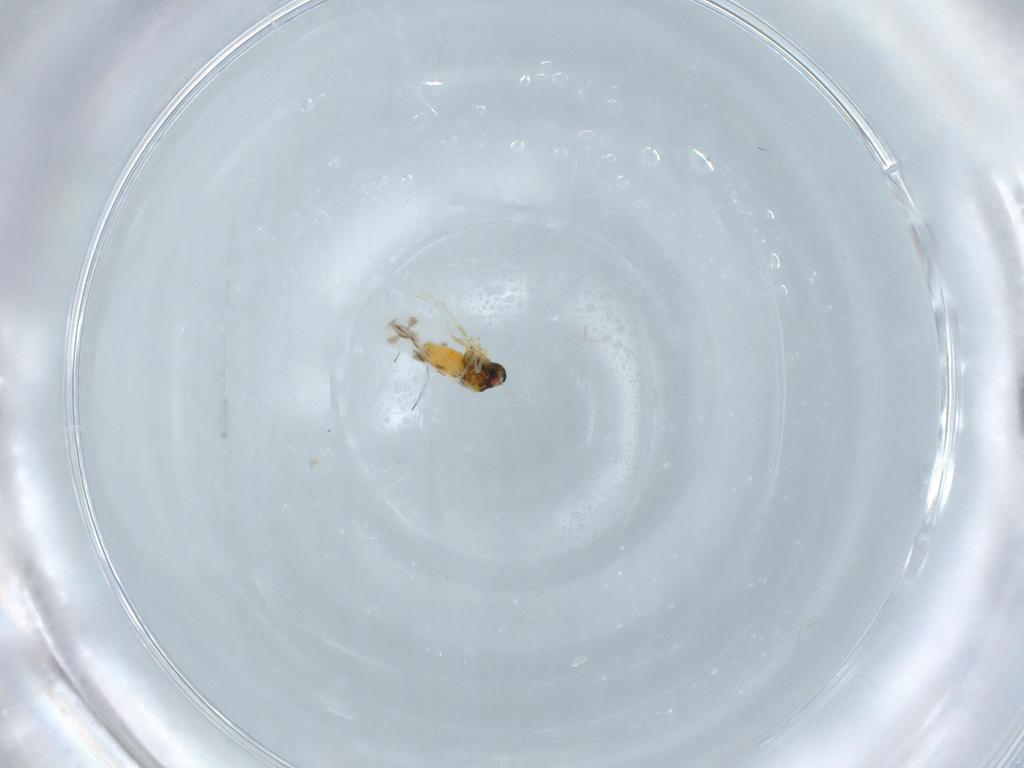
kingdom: Animalia
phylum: Arthropoda
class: Insecta
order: Hemiptera
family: Aleyrodidae
